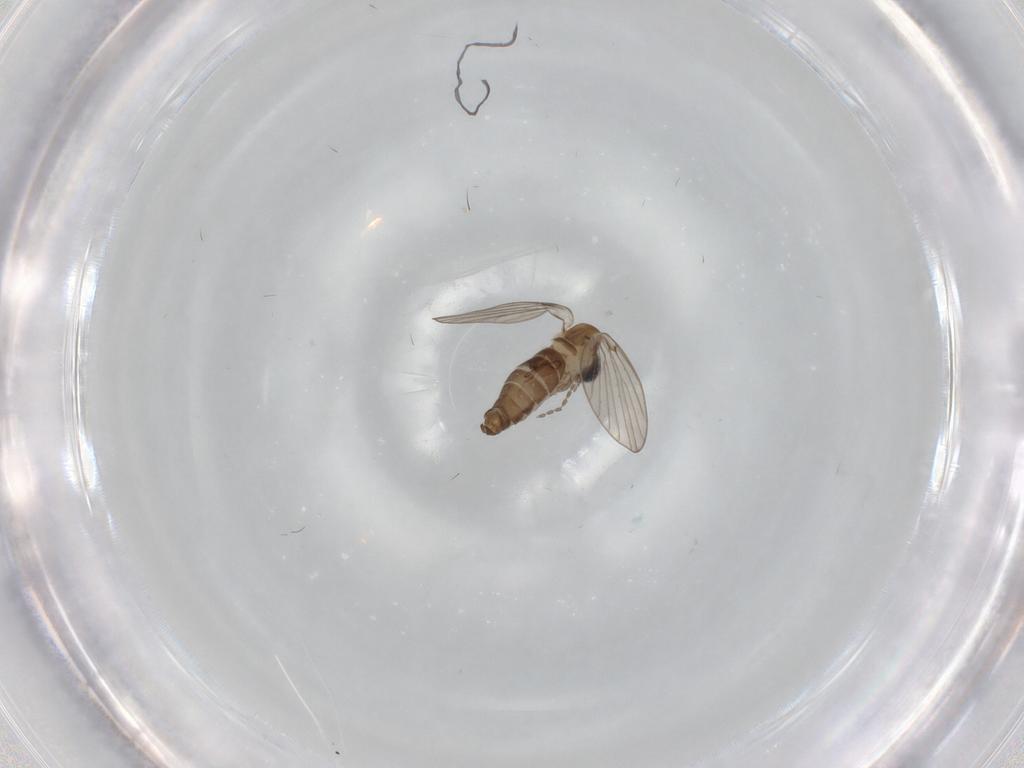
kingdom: Animalia
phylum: Arthropoda
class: Insecta
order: Diptera
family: Psychodidae
